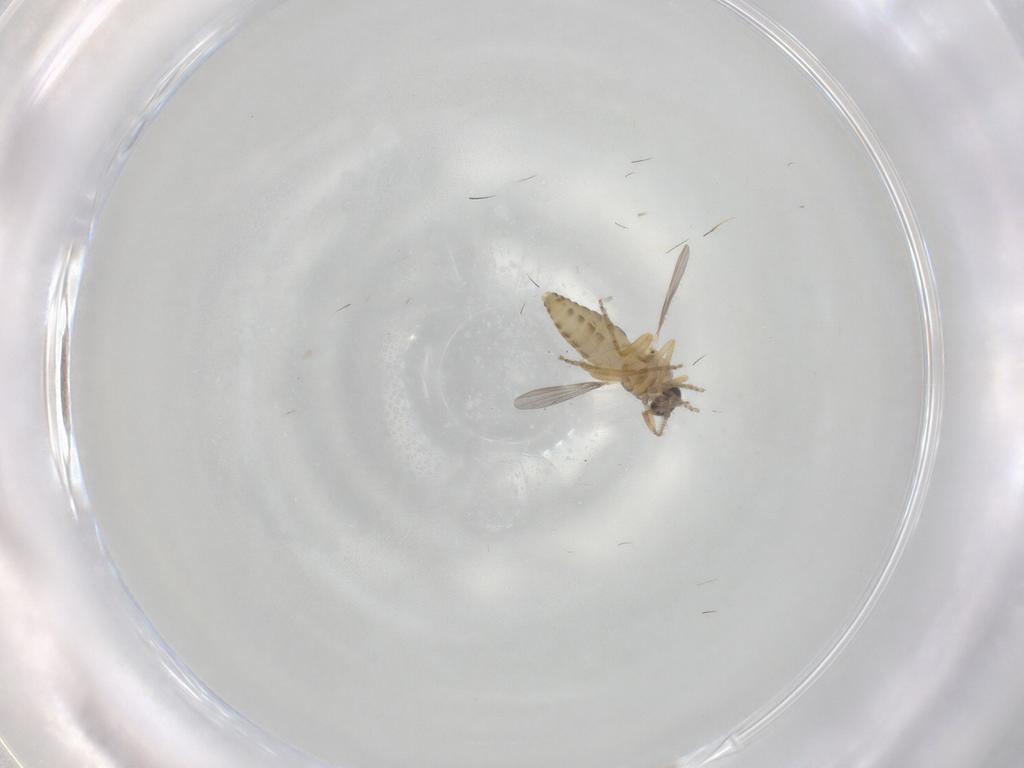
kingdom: Animalia
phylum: Arthropoda
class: Insecta
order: Diptera
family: Ceratopogonidae
